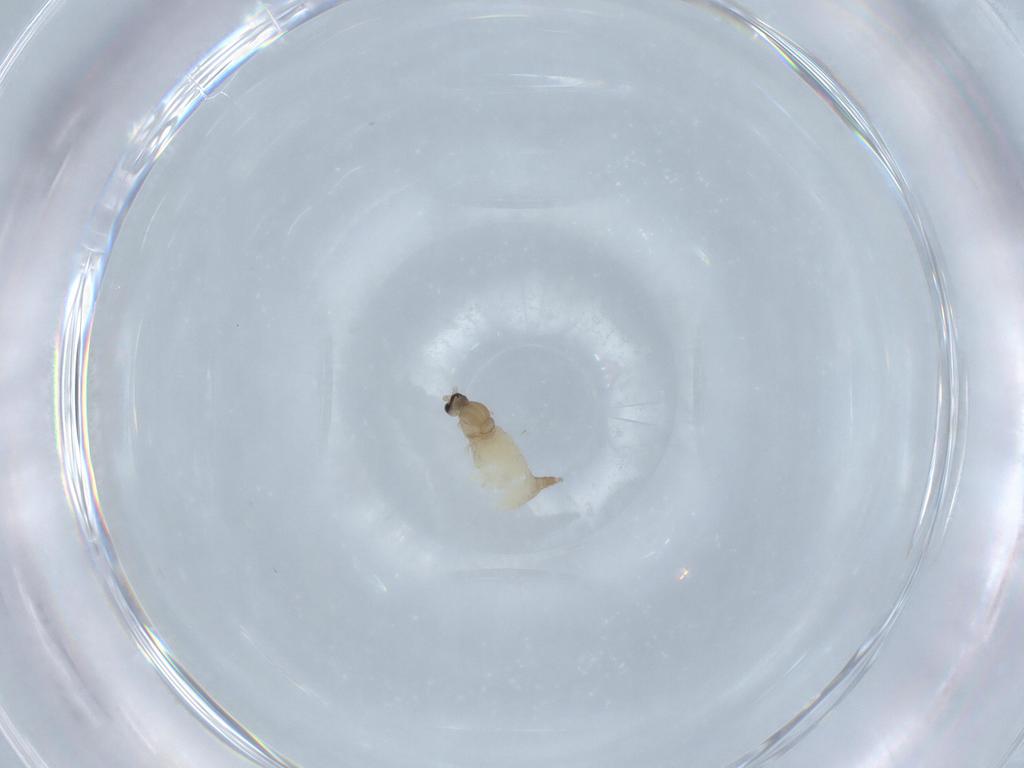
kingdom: Animalia
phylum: Arthropoda
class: Insecta
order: Diptera
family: Cecidomyiidae
